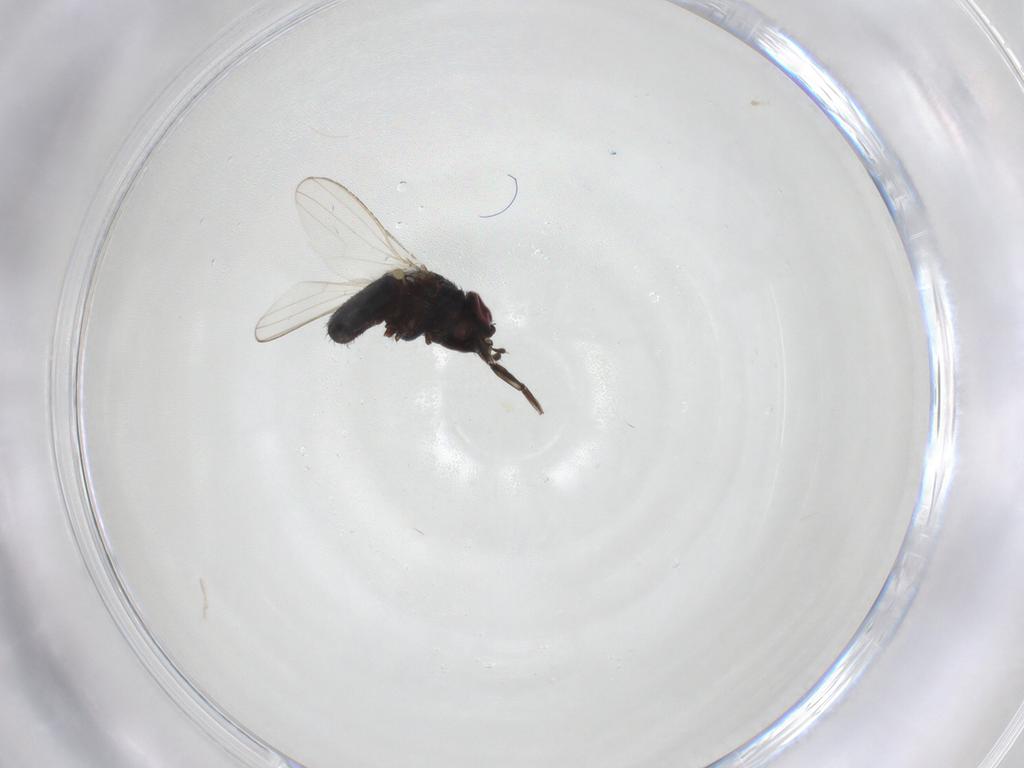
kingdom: Animalia
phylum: Arthropoda
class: Insecta
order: Diptera
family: Milichiidae
